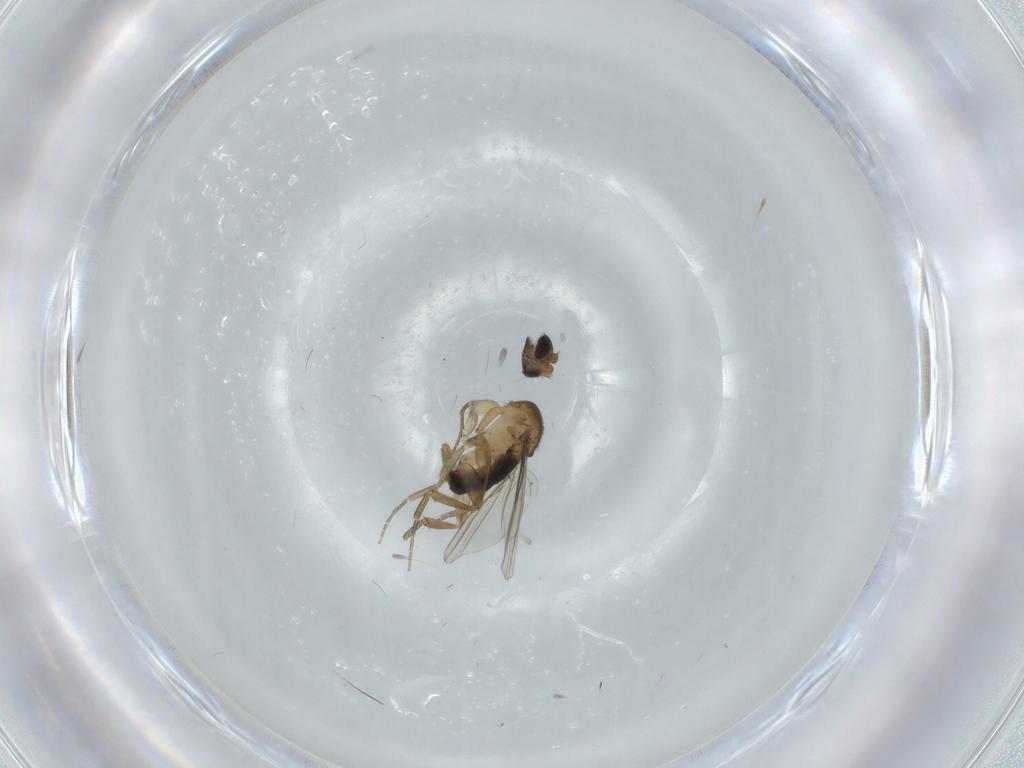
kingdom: Animalia
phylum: Arthropoda
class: Insecta
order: Diptera
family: Phoridae
